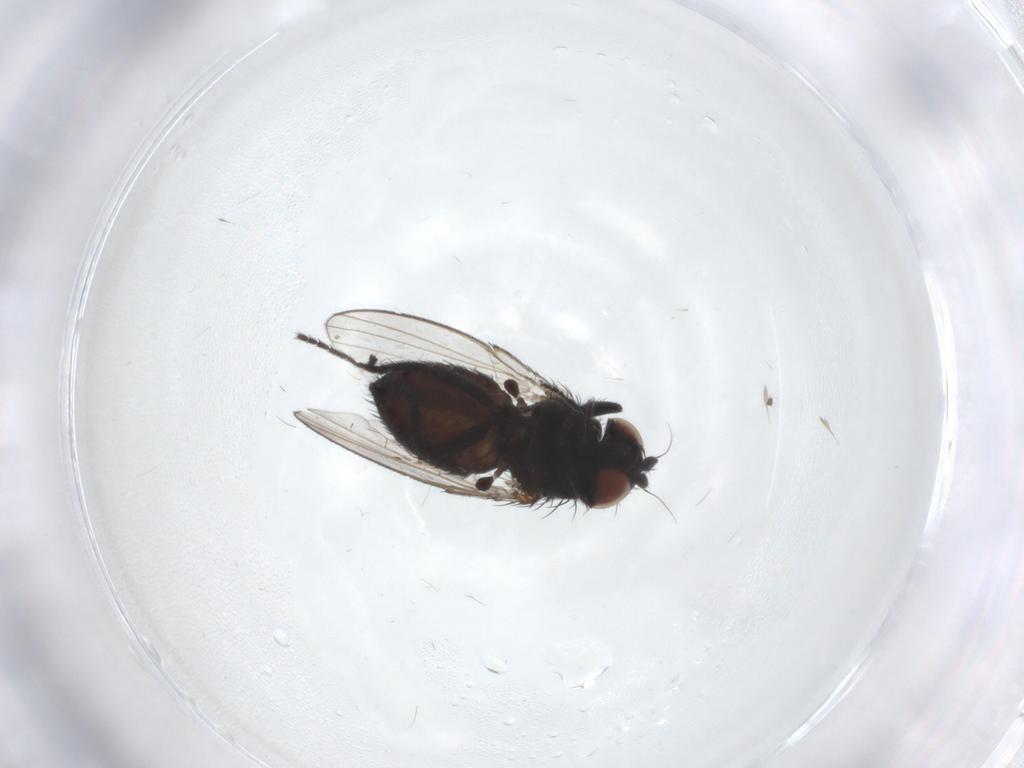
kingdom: Animalia
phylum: Arthropoda
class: Insecta
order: Diptera
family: Milichiidae
